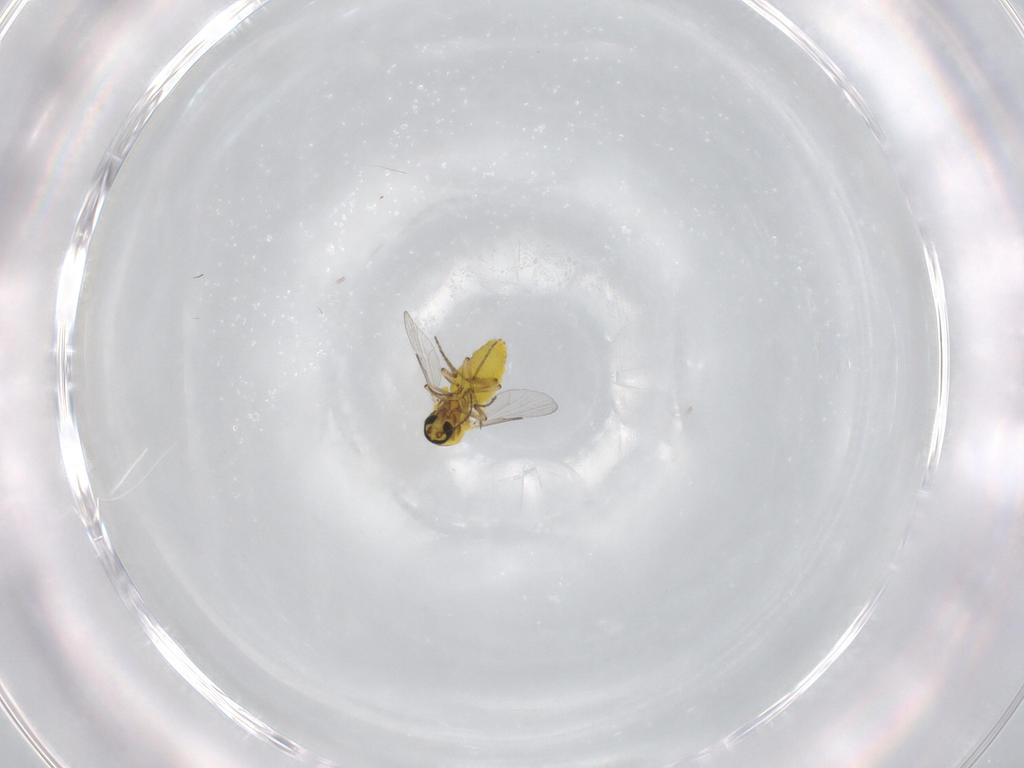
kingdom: Animalia
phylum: Arthropoda
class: Insecta
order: Diptera
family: Ceratopogonidae
